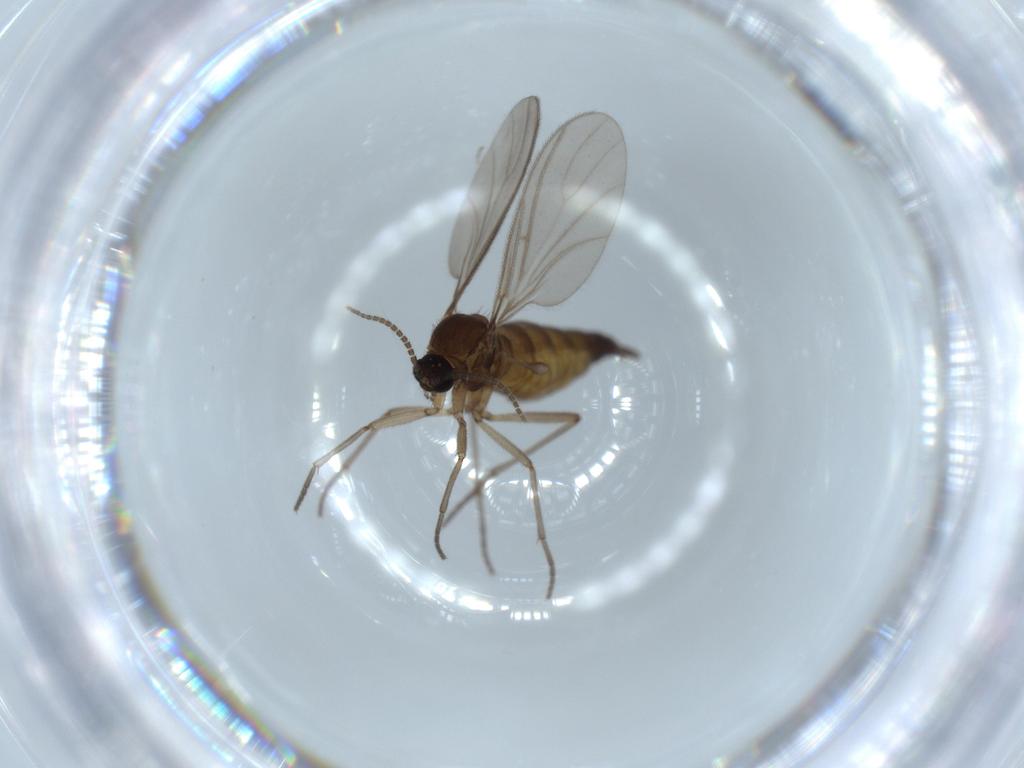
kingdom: Animalia
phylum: Arthropoda
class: Insecta
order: Diptera
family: Sciaridae
